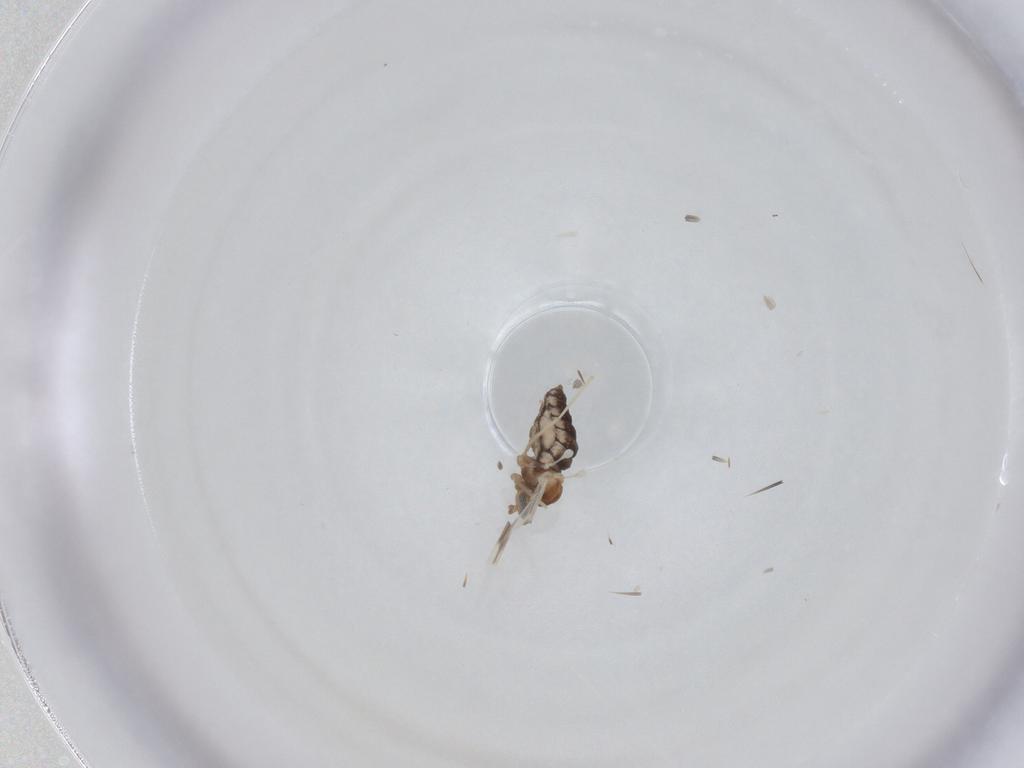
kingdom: Animalia
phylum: Arthropoda
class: Insecta
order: Diptera
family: Cecidomyiidae
